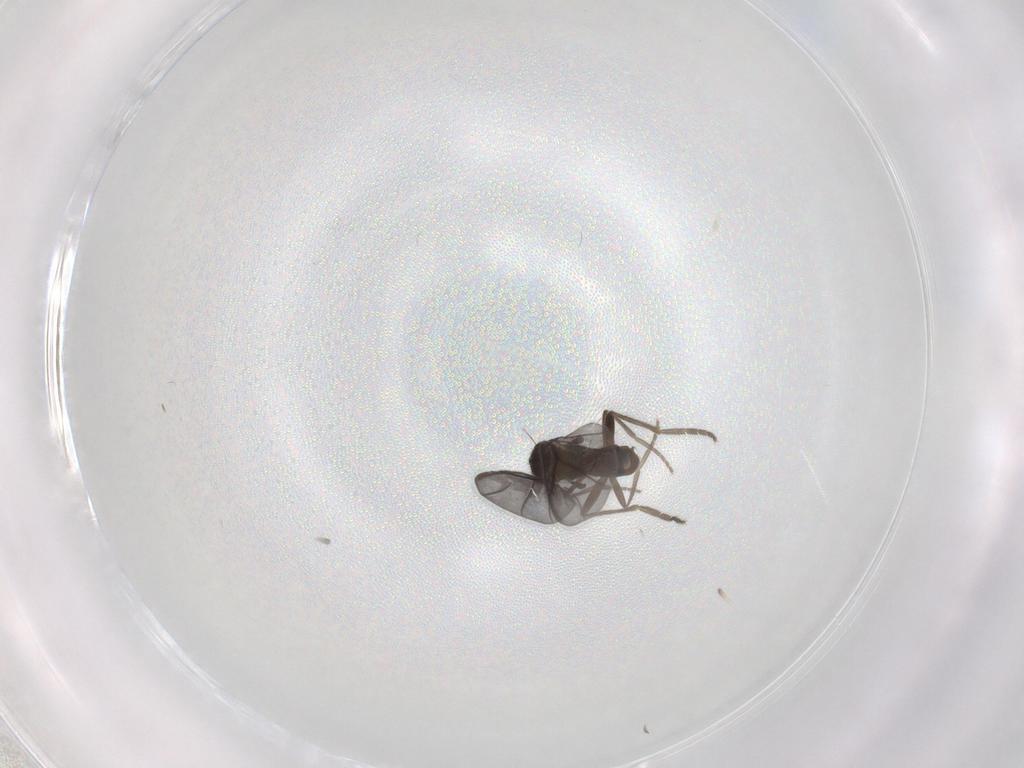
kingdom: Animalia
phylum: Arthropoda
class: Insecta
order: Diptera
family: Phoridae
